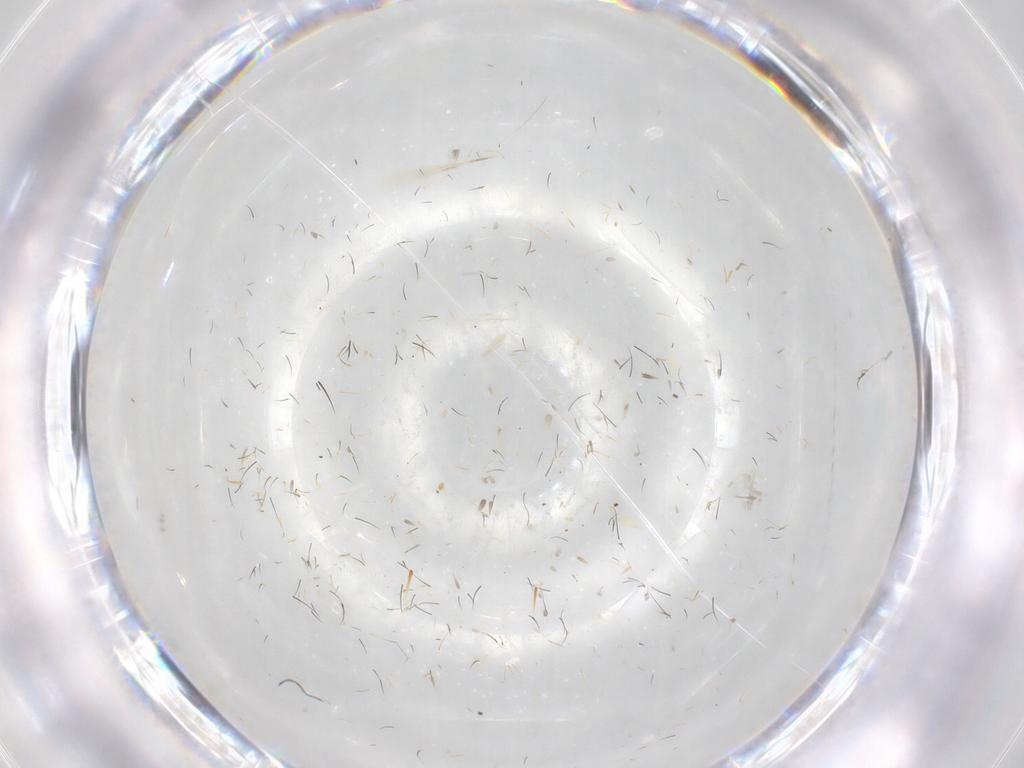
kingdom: Animalia
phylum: Arthropoda
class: Insecta
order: Diptera
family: Tabanidae
